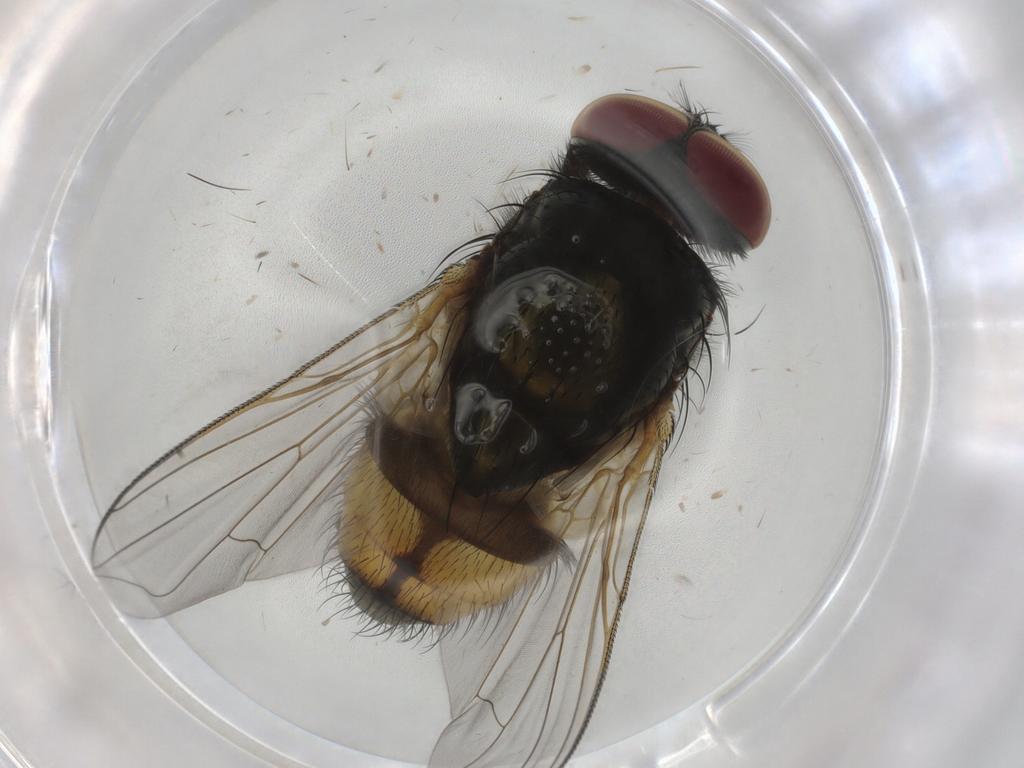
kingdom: Animalia
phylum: Arthropoda
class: Insecta
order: Diptera
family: Muscidae
